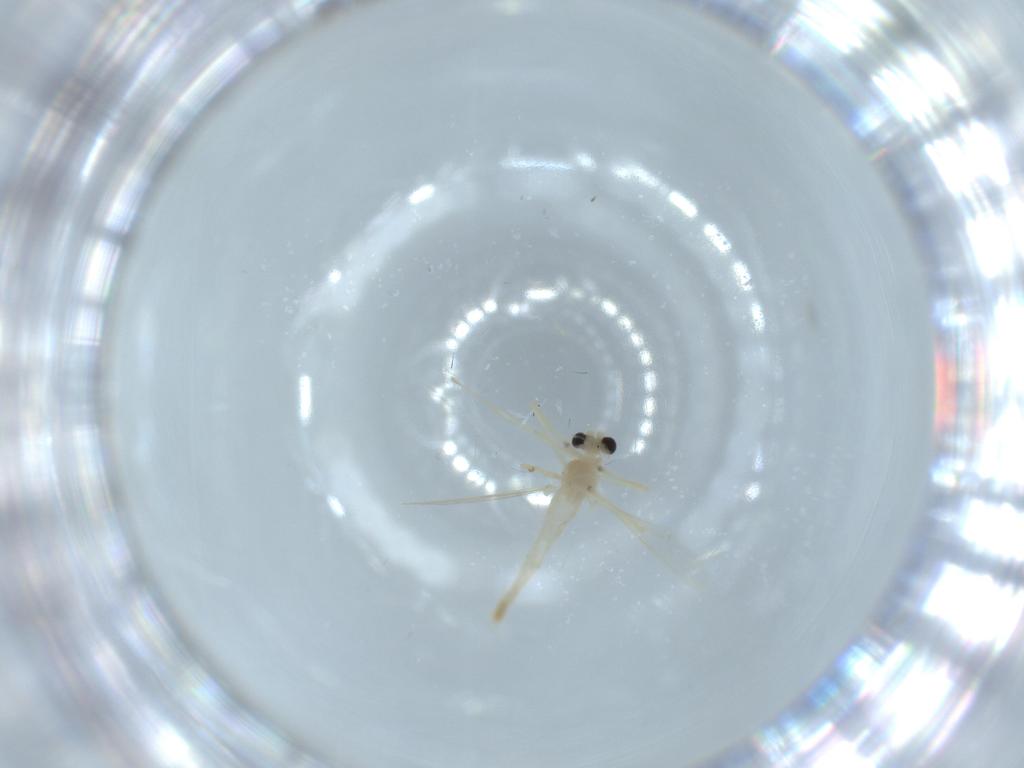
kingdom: Animalia
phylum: Arthropoda
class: Insecta
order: Diptera
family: Chironomidae
